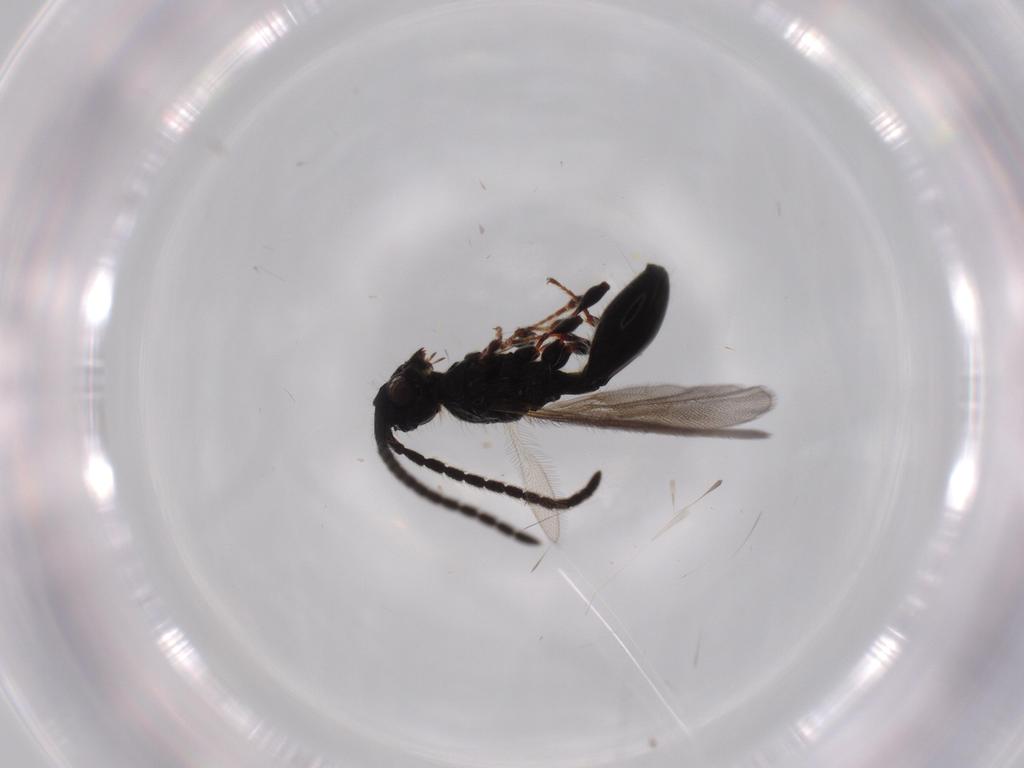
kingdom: Animalia
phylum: Arthropoda
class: Insecta
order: Hymenoptera
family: Diapriidae
